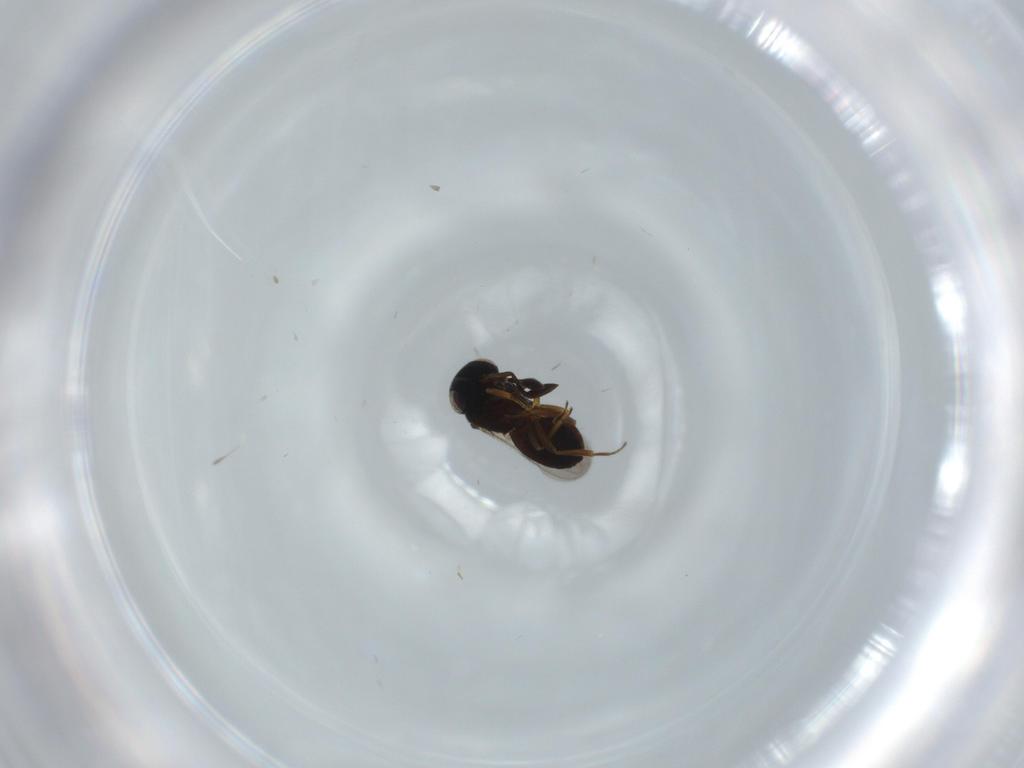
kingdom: Animalia
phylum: Arthropoda
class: Insecta
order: Hymenoptera
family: Scelionidae
